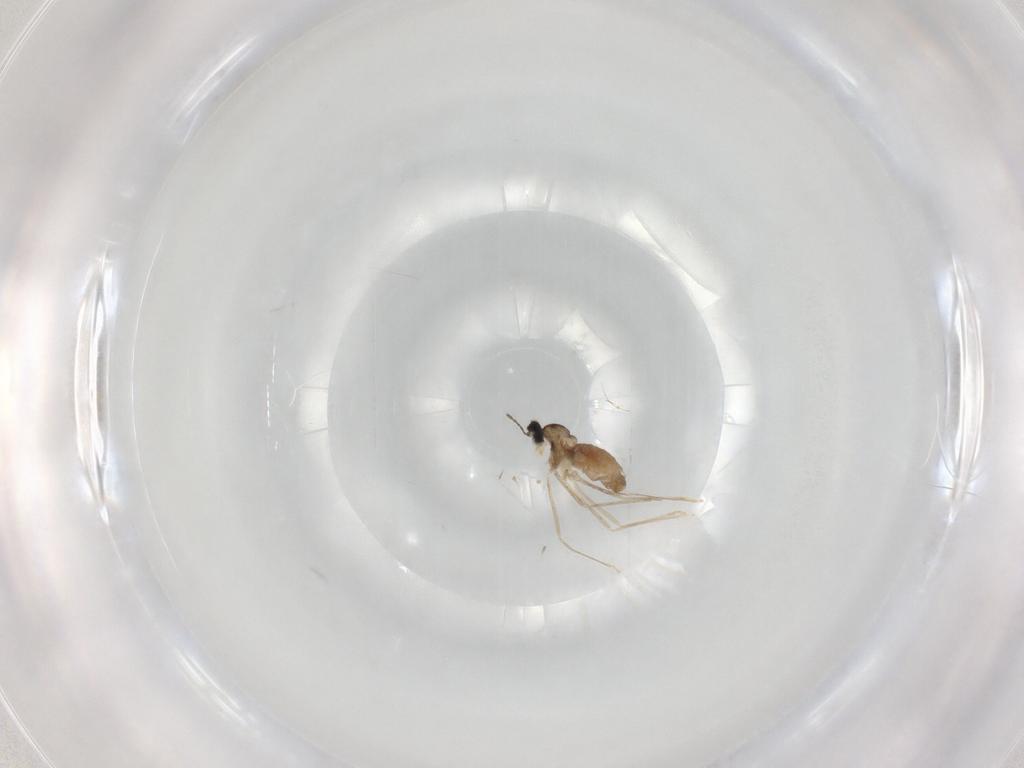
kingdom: Animalia
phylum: Arthropoda
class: Insecta
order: Diptera
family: Cecidomyiidae
